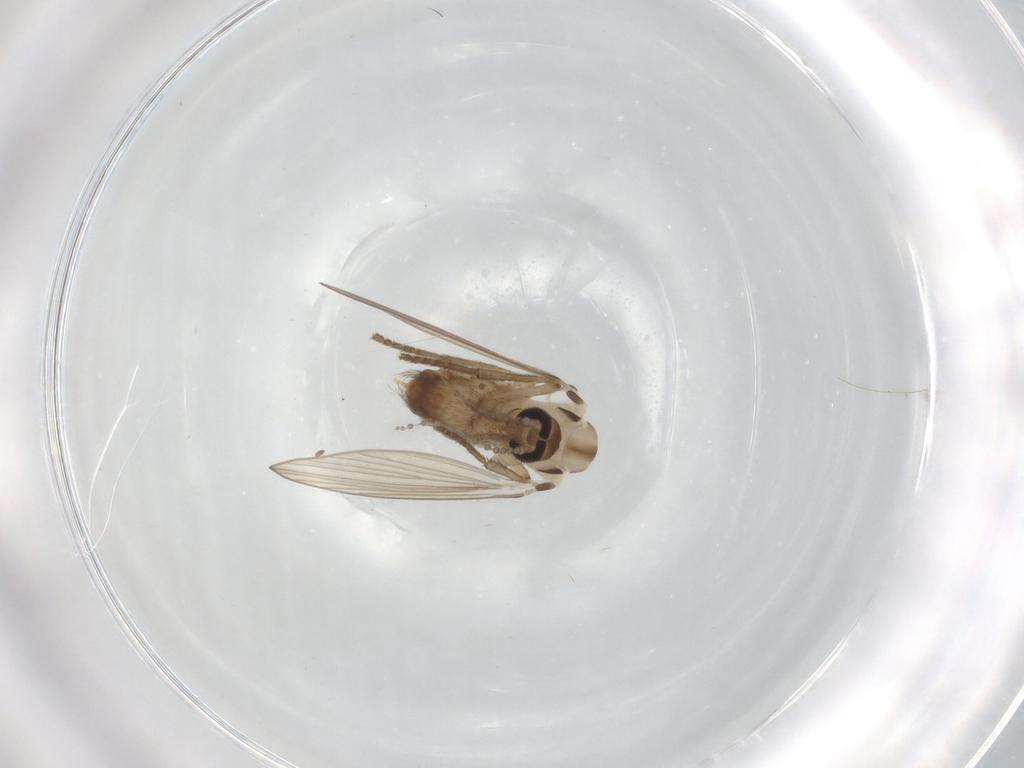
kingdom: Animalia
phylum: Arthropoda
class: Insecta
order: Diptera
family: Psychodidae
